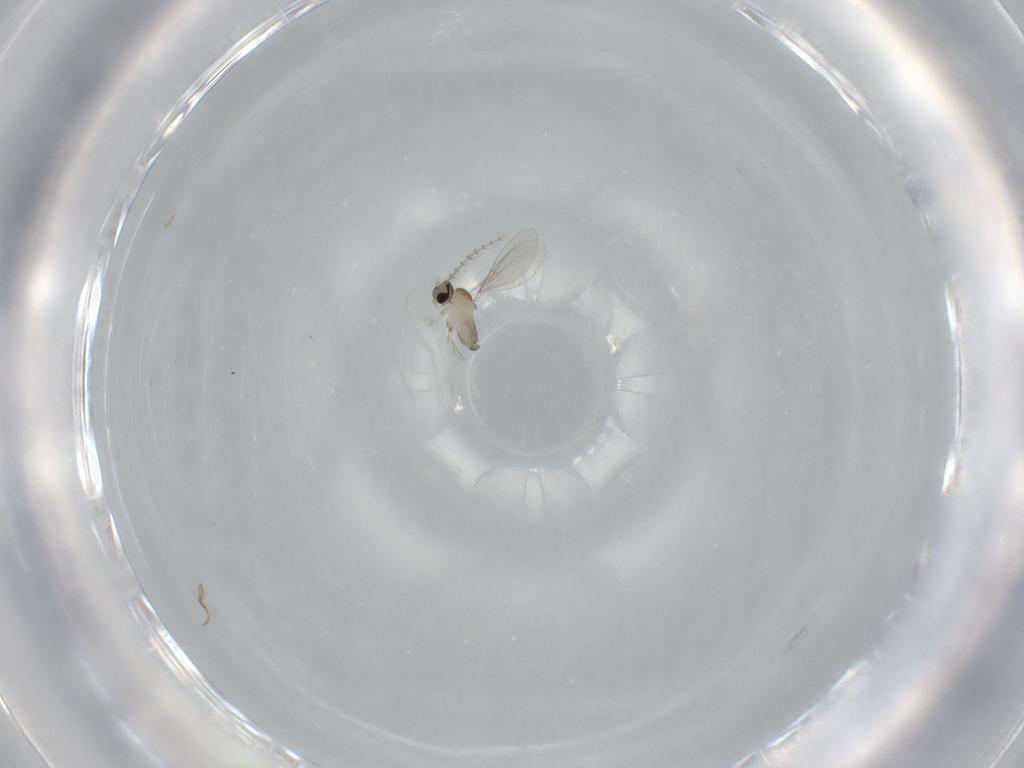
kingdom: Animalia
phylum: Arthropoda
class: Insecta
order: Diptera
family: Cecidomyiidae
